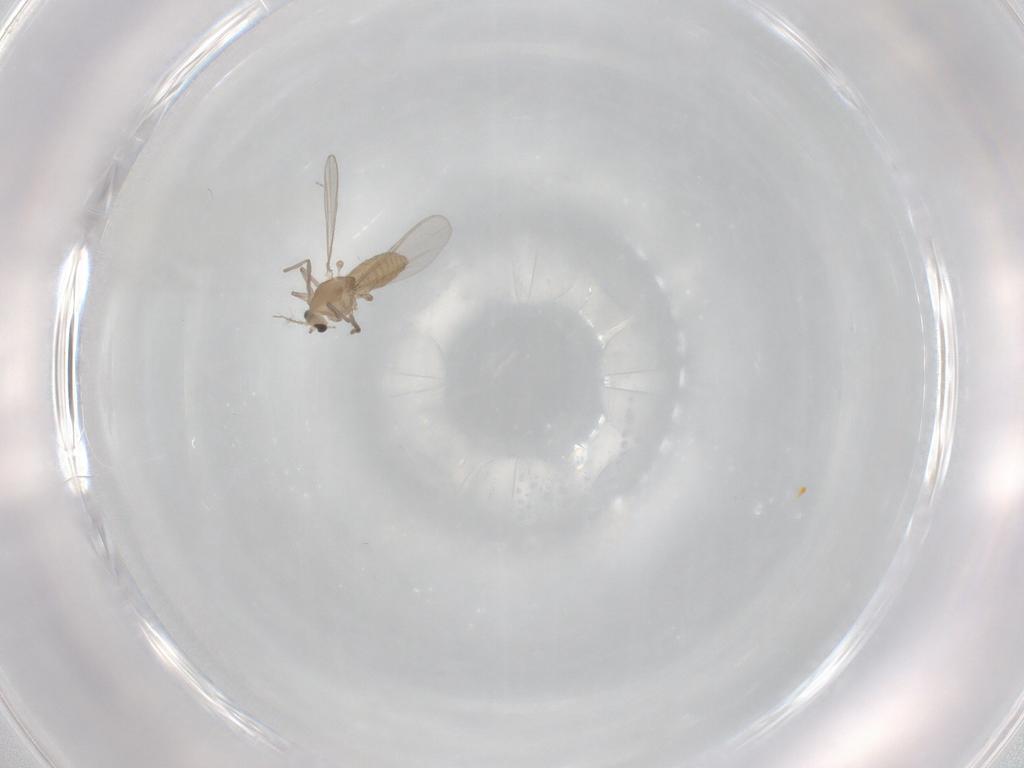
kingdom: Animalia
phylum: Arthropoda
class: Insecta
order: Diptera
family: Chironomidae
